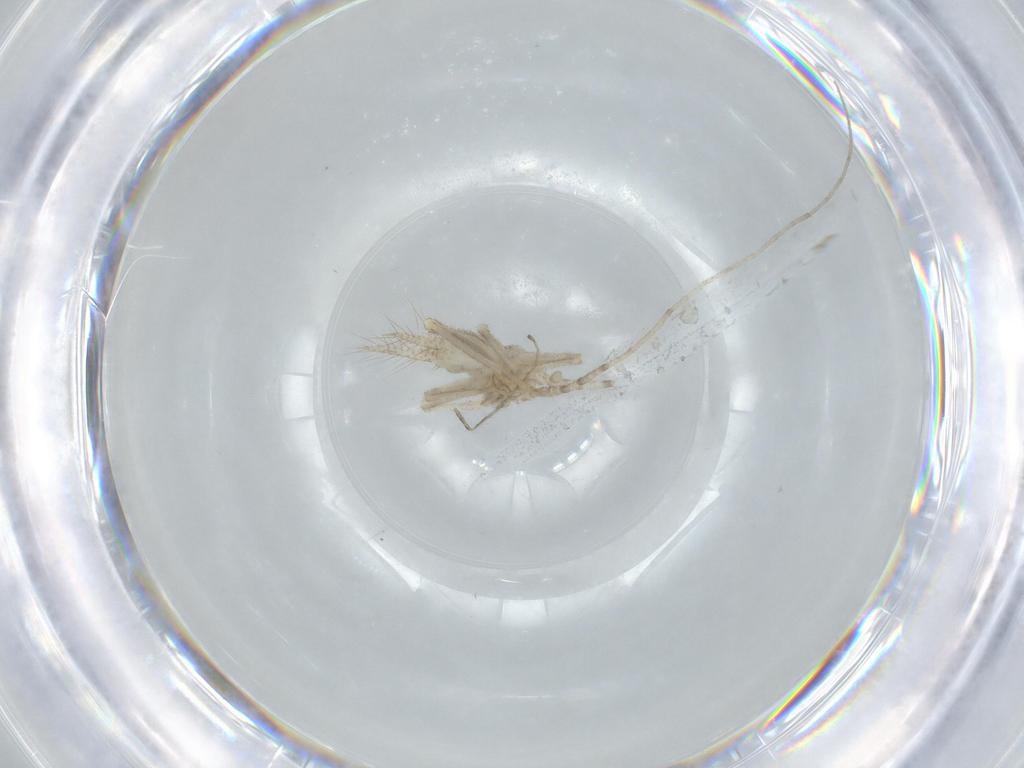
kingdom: Animalia
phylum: Arthropoda
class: Insecta
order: Orthoptera
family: Trigonidiidae
